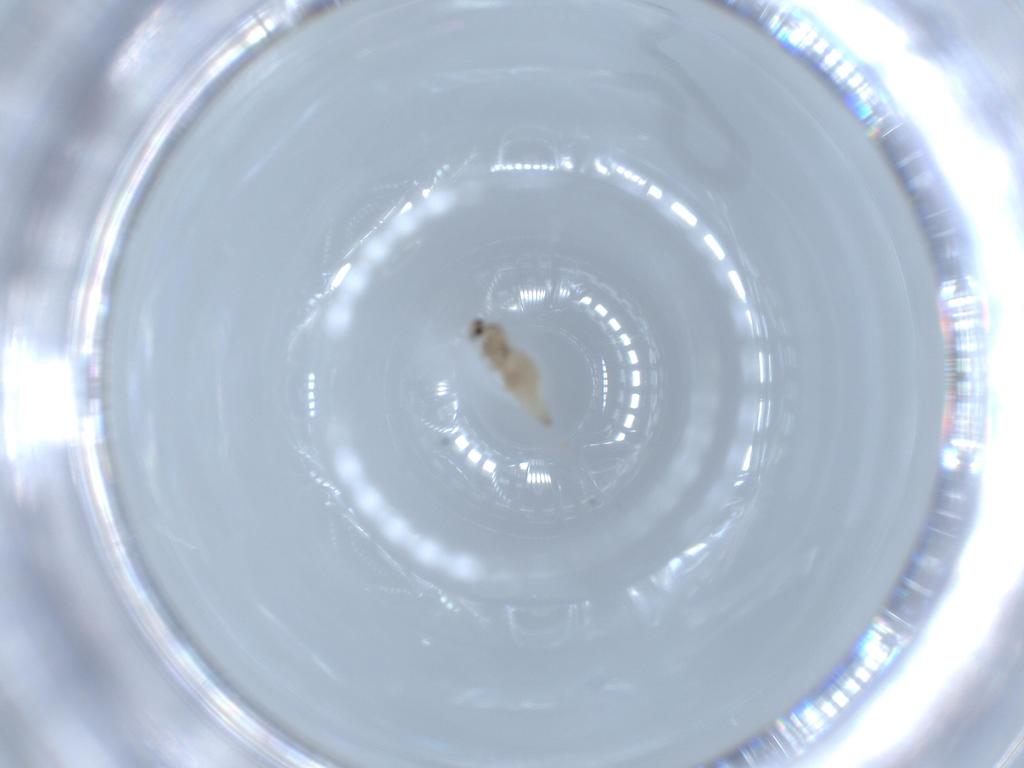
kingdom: Animalia
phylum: Arthropoda
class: Insecta
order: Diptera
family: Cecidomyiidae
